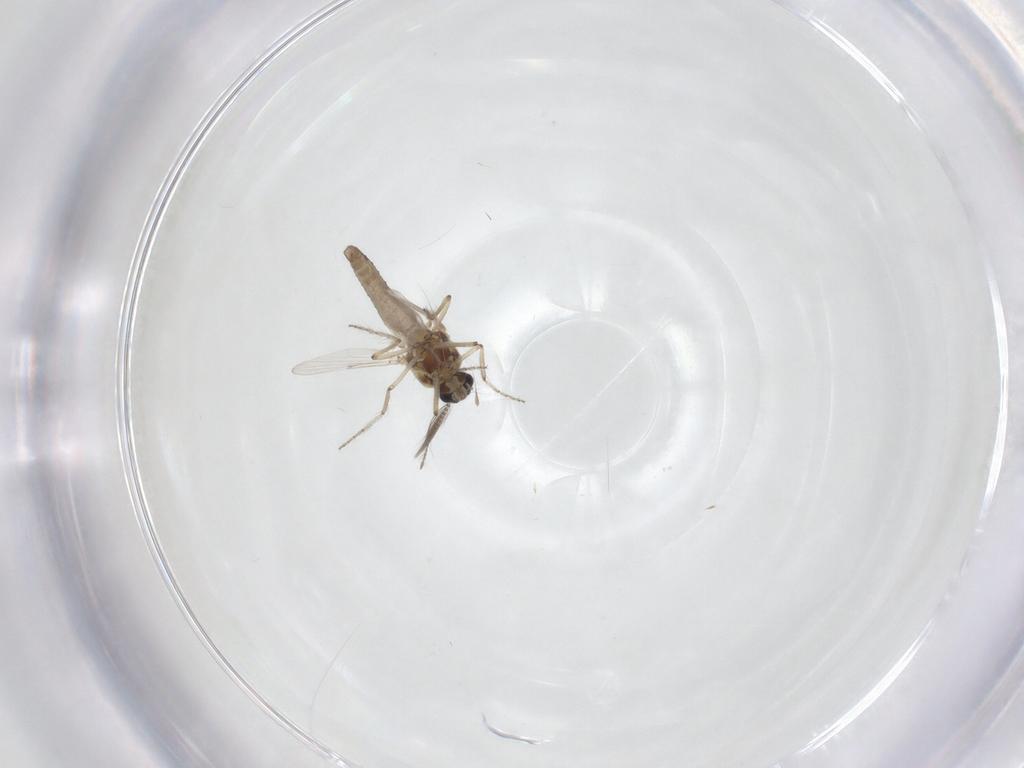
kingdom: Animalia
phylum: Arthropoda
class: Insecta
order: Diptera
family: Ceratopogonidae
